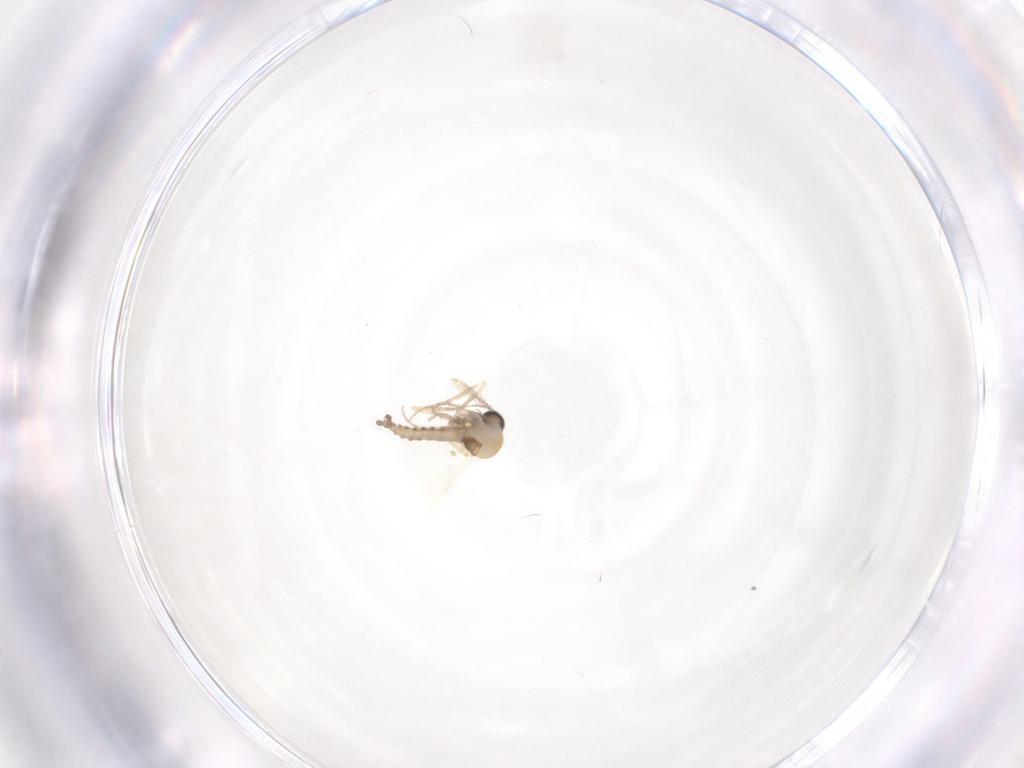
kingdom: Animalia
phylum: Arthropoda
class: Insecta
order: Diptera
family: Ceratopogonidae
